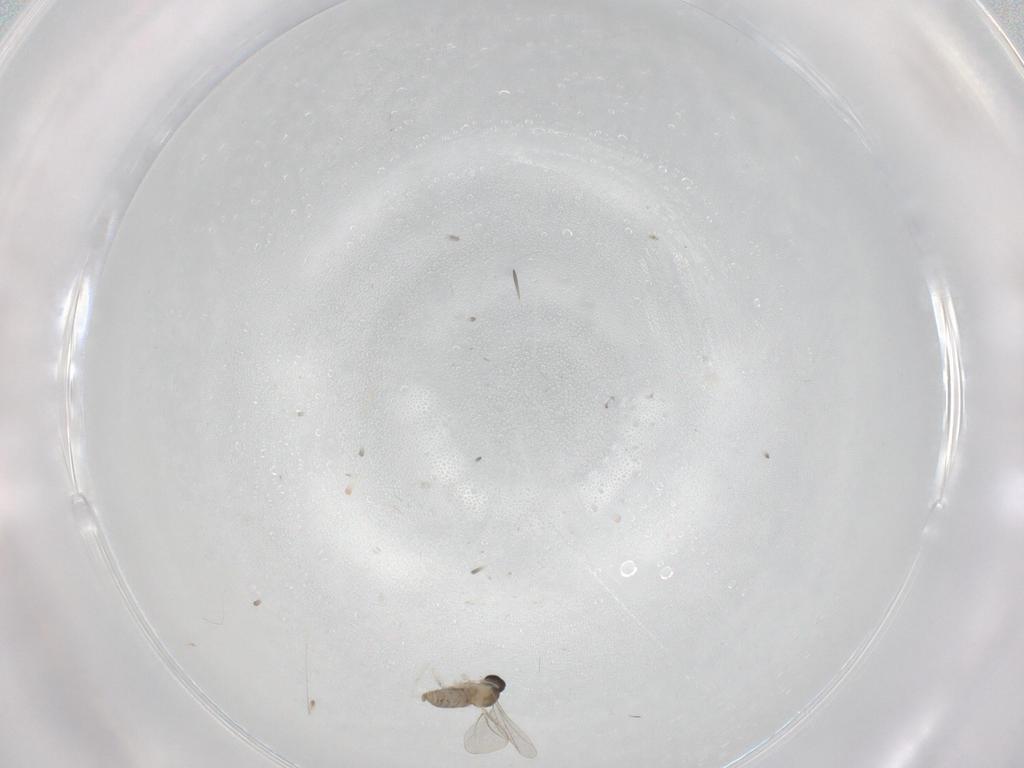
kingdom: Animalia
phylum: Arthropoda
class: Insecta
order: Diptera
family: Cecidomyiidae
